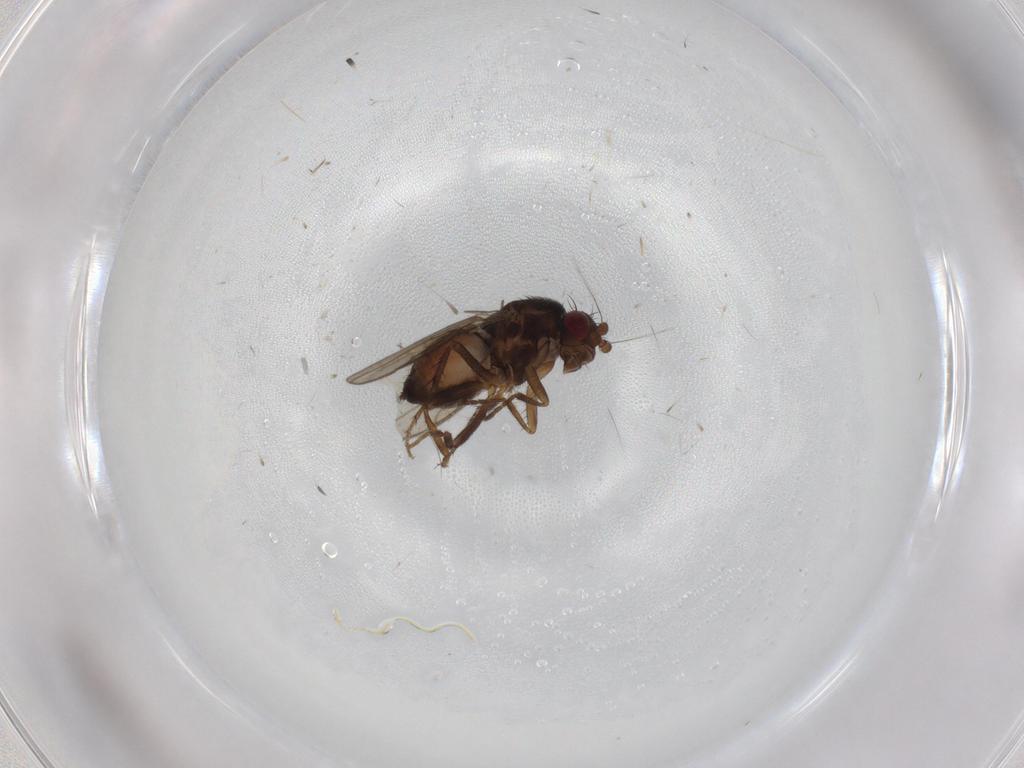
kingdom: Animalia
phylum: Arthropoda
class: Insecta
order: Diptera
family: Sphaeroceridae
